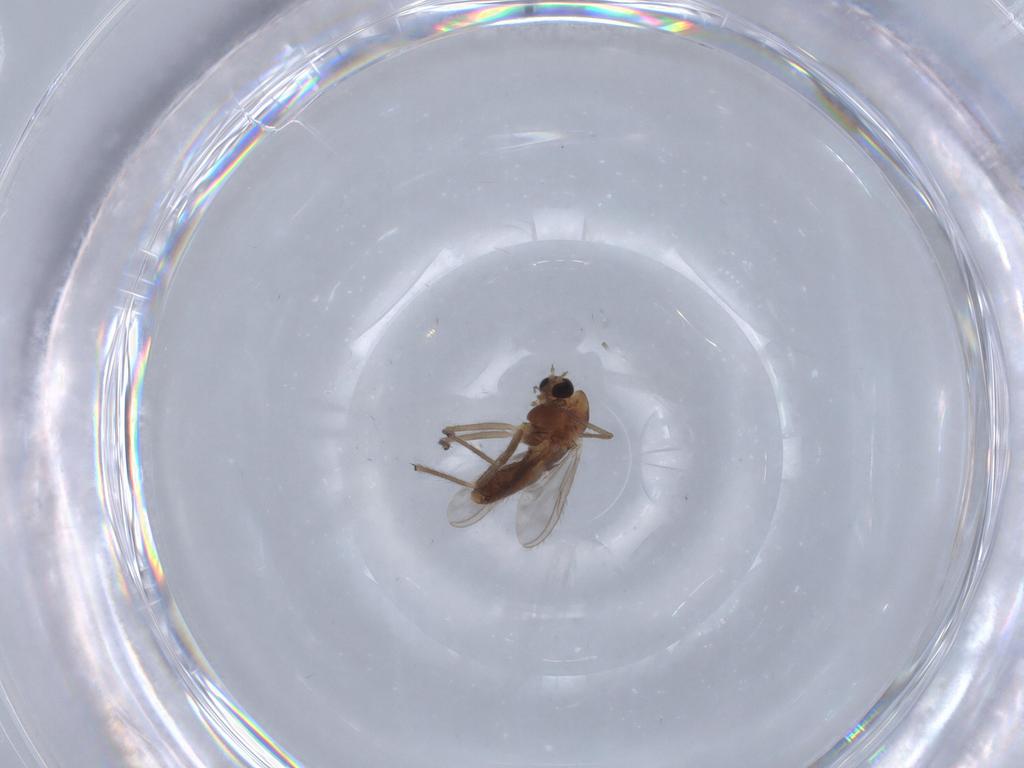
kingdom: Animalia
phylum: Arthropoda
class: Insecta
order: Diptera
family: Chironomidae
